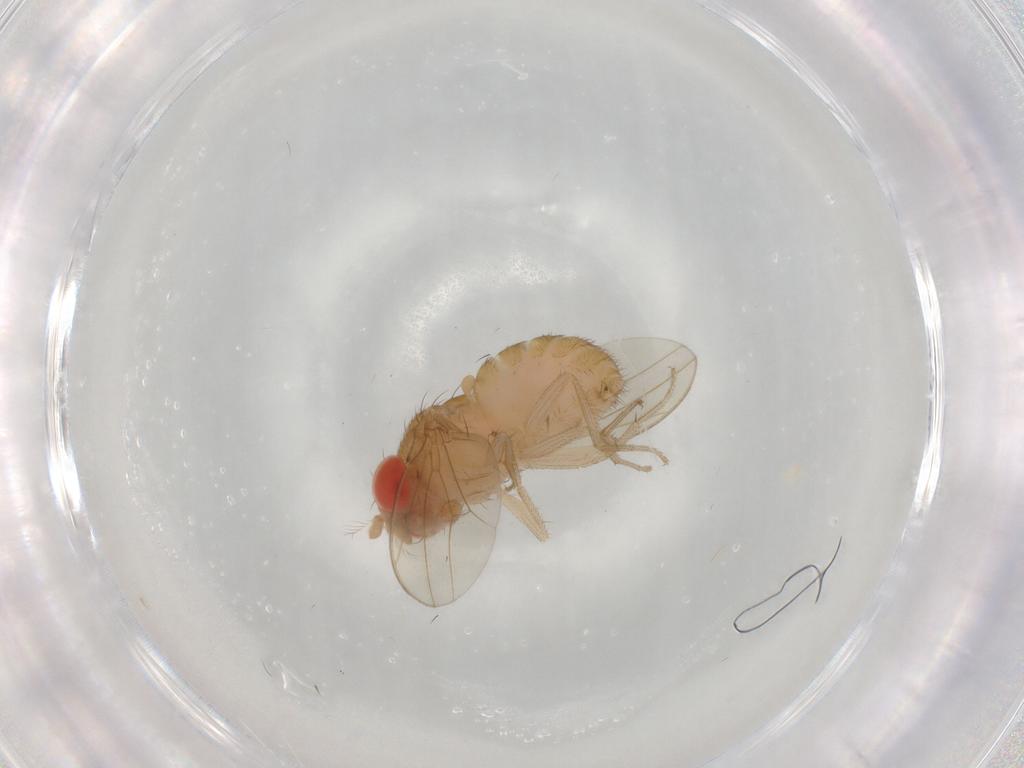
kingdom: Animalia
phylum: Arthropoda
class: Insecta
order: Diptera
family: Drosophilidae
